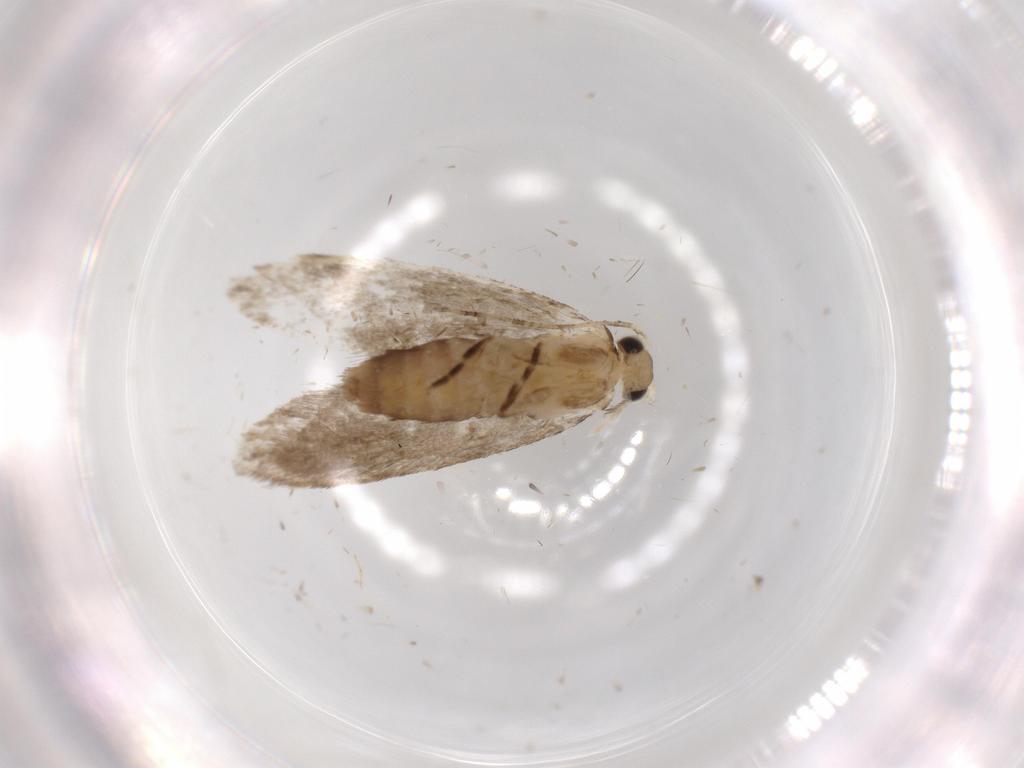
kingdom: Animalia
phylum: Arthropoda
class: Insecta
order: Lepidoptera
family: Tineidae
